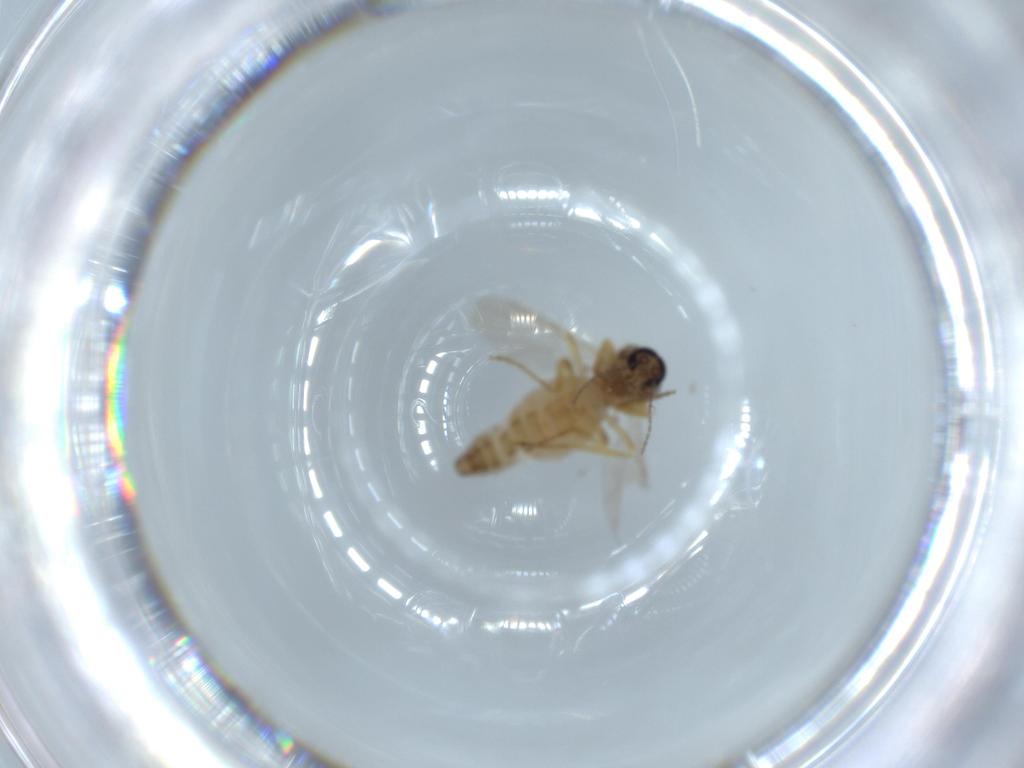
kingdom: Animalia
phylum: Arthropoda
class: Insecta
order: Diptera
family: Ceratopogonidae
